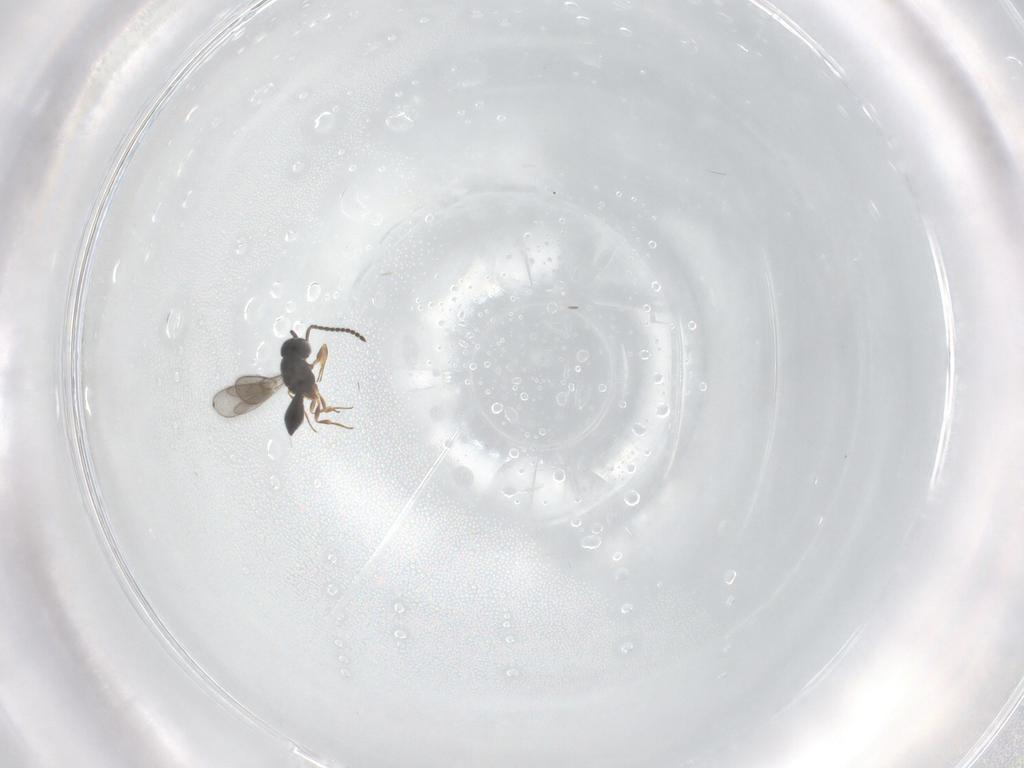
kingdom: Animalia
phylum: Arthropoda
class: Insecta
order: Hymenoptera
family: Scelionidae
